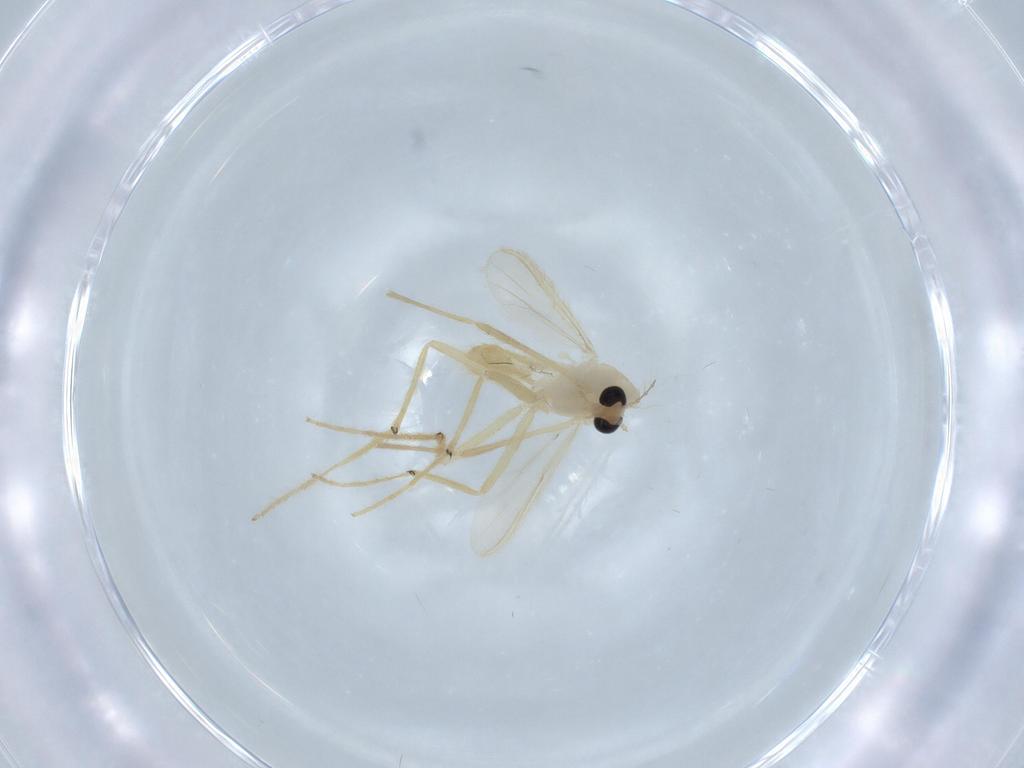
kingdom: Animalia
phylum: Arthropoda
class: Insecta
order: Diptera
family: Chironomidae
